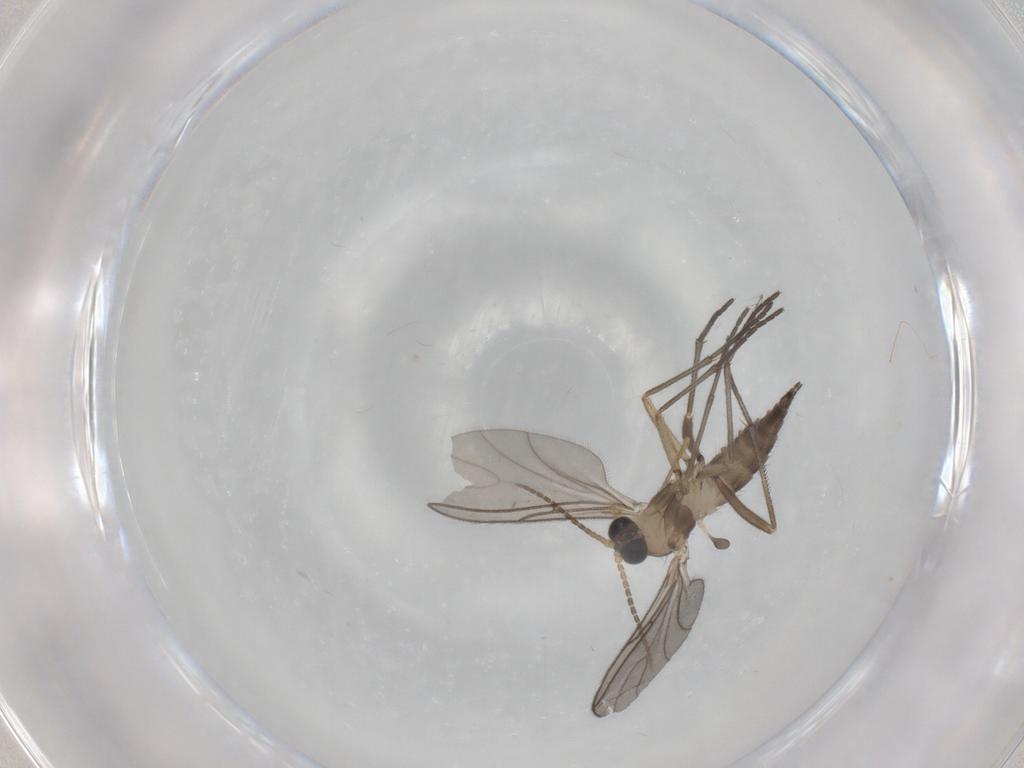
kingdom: Animalia
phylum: Arthropoda
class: Insecta
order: Diptera
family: Sciaridae
